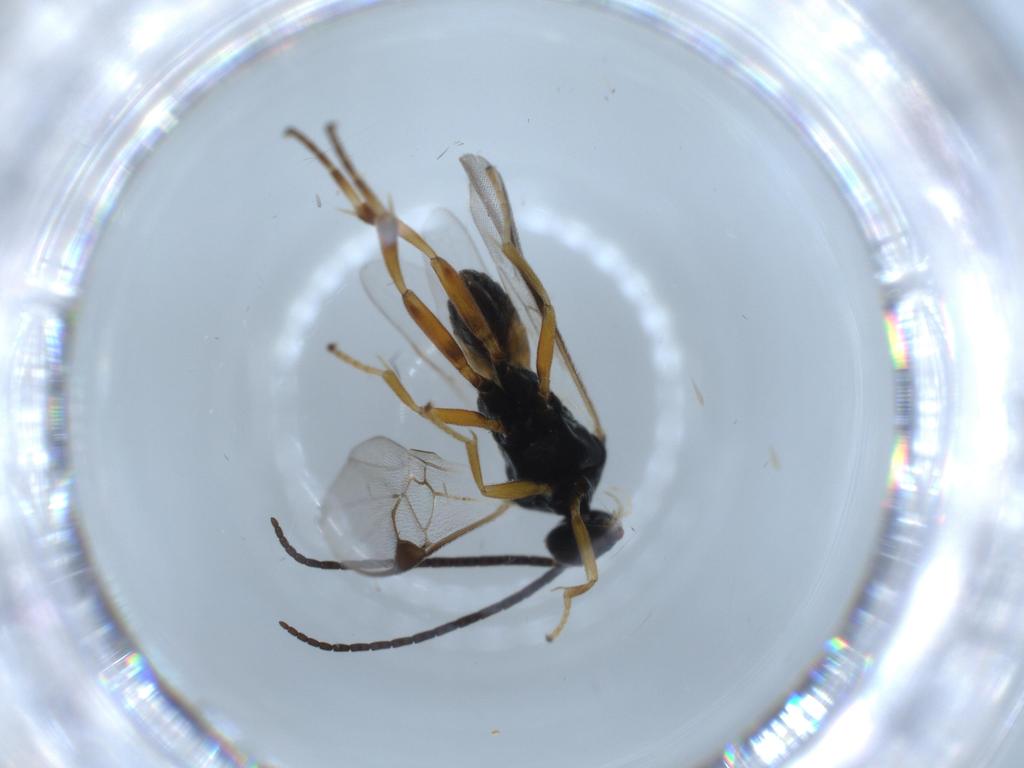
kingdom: Animalia
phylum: Arthropoda
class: Insecta
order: Hymenoptera
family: Braconidae
